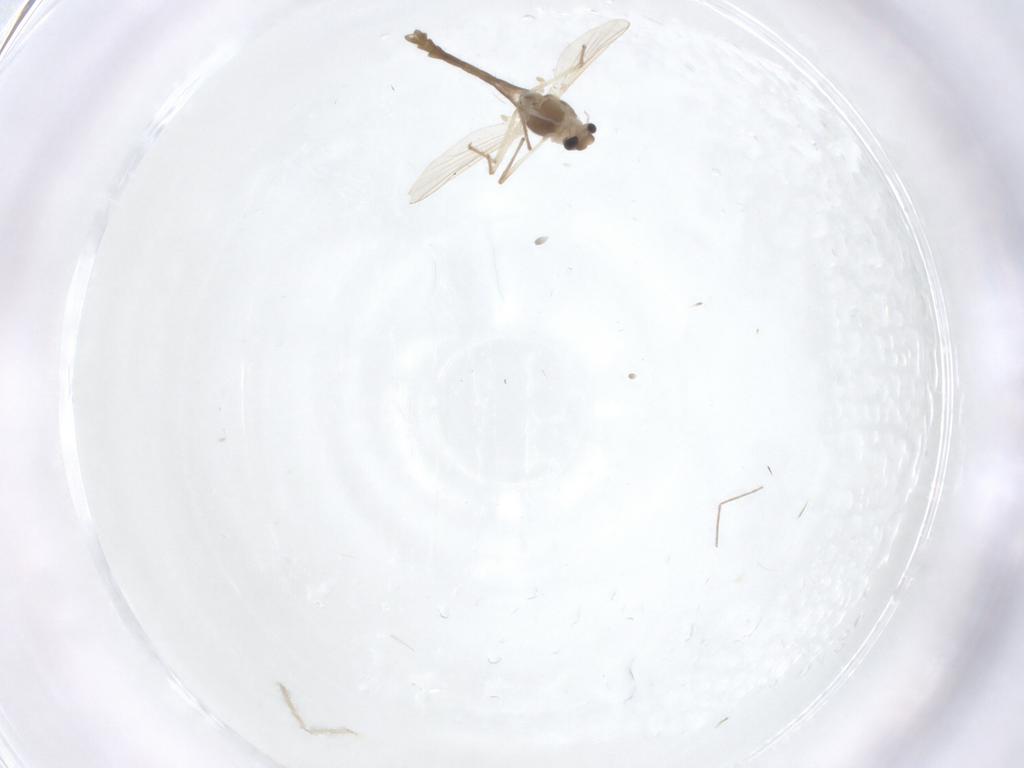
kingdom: Animalia
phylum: Arthropoda
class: Insecta
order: Diptera
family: Chironomidae
